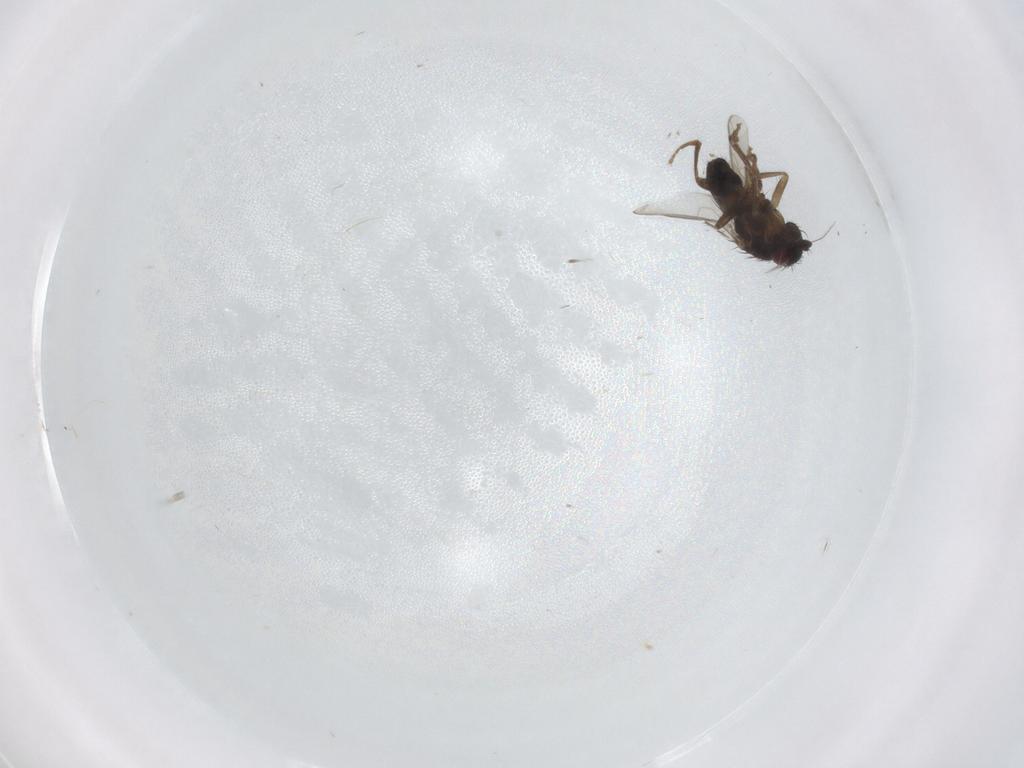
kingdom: Animalia
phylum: Arthropoda
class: Insecta
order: Diptera
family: Sphaeroceridae
